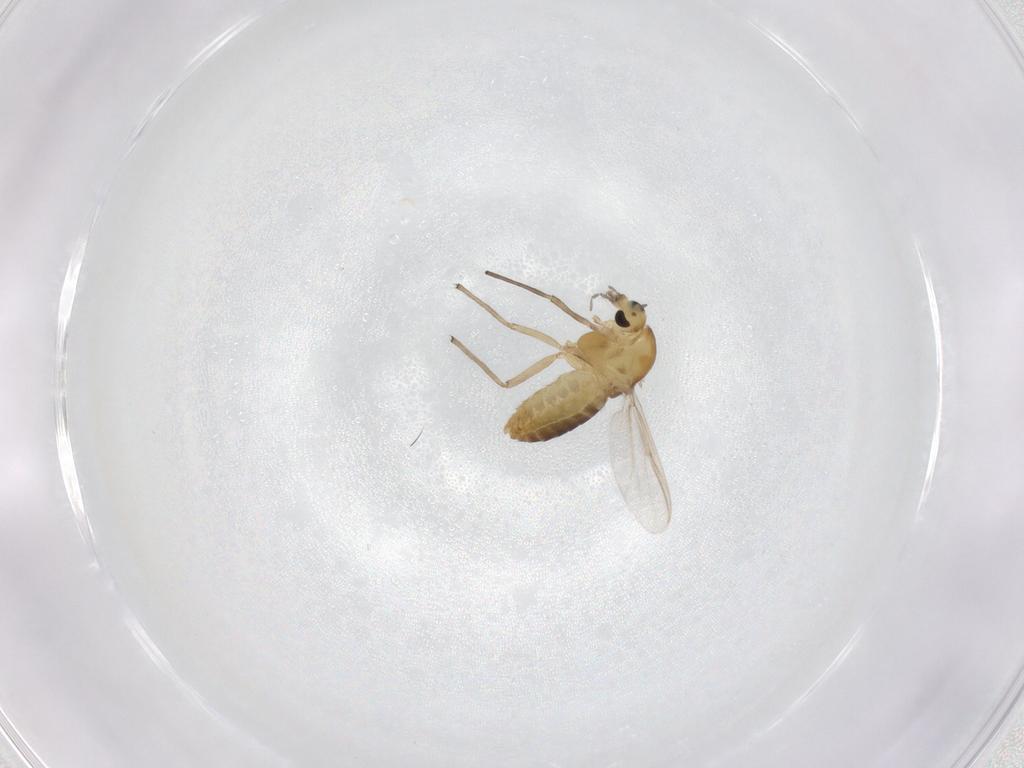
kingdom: Animalia
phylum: Arthropoda
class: Insecta
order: Diptera
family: Chironomidae
